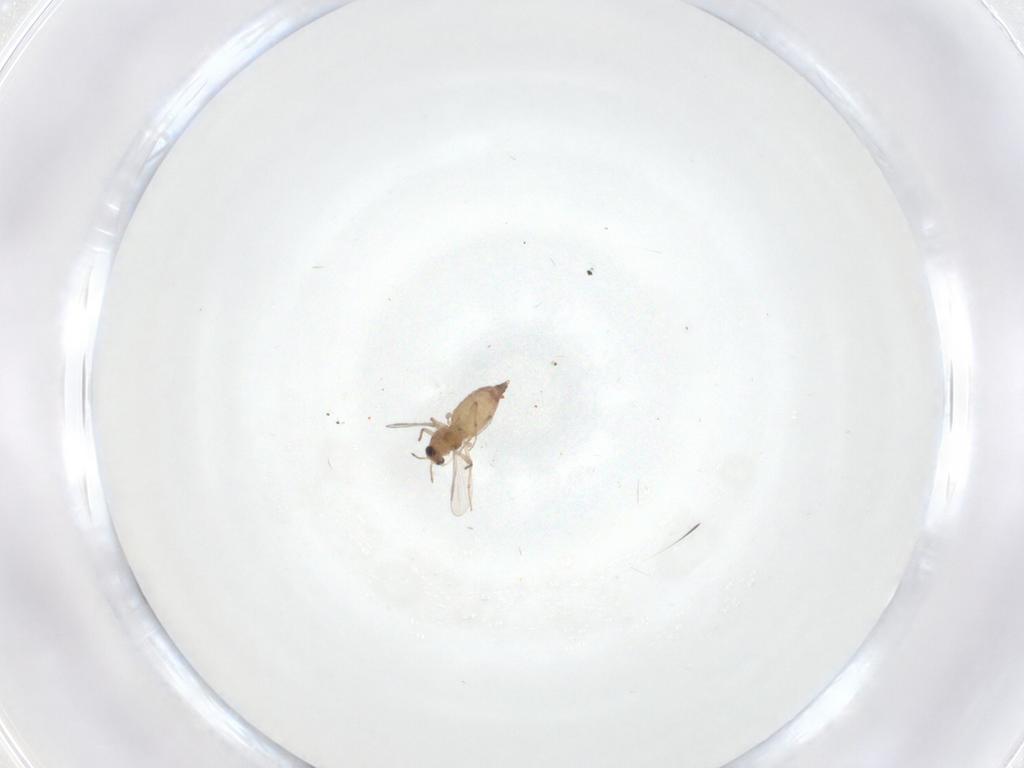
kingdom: Animalia
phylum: Arthropoda
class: Insecta
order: Diptera
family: Chironomidae
